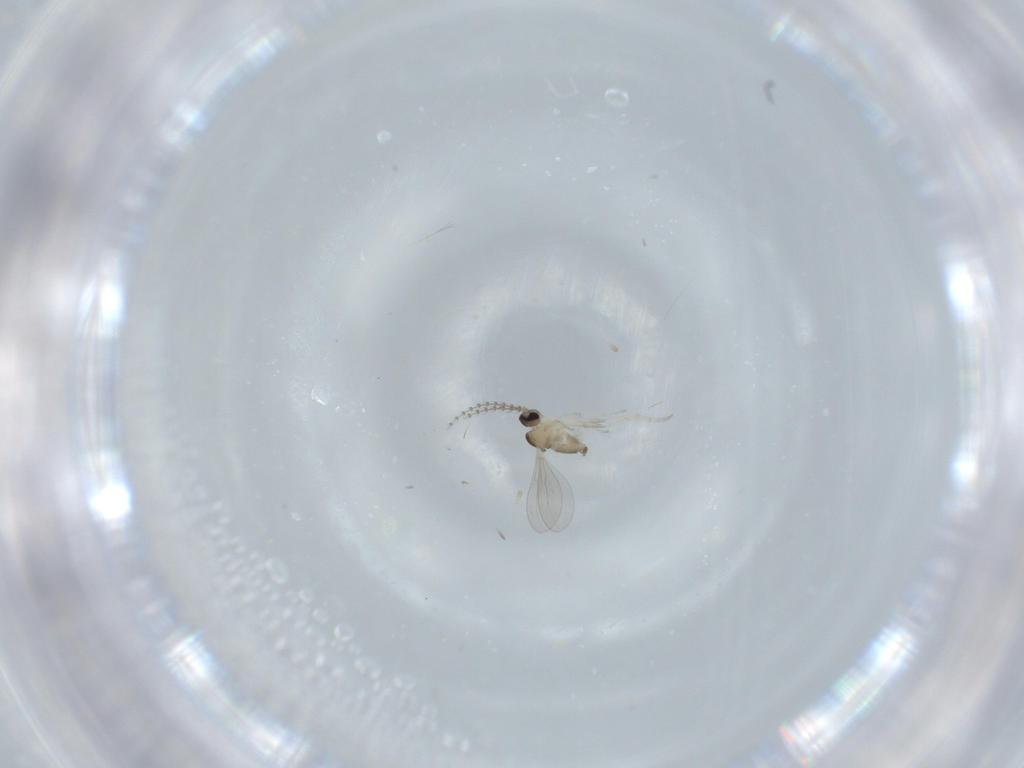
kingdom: Animalia
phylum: Arthropoda
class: Insecta
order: Diptera
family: Cecidomyiidae
